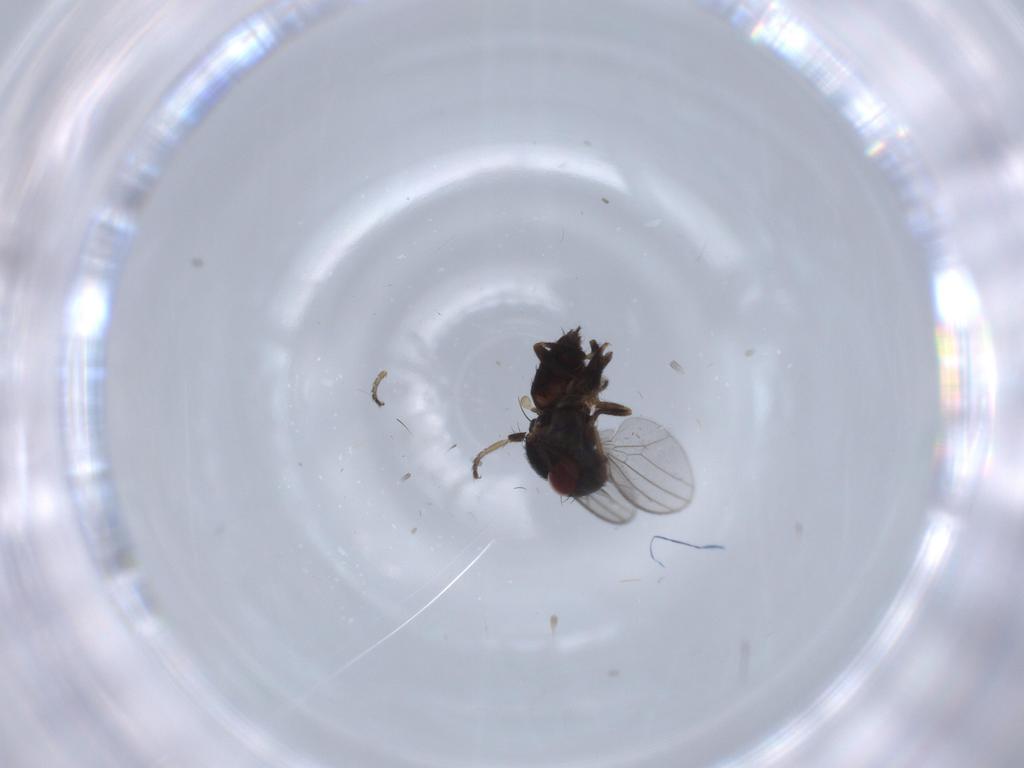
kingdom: Animalia
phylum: Arthropoda
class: Insecta
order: Diptera
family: Milichiidae
